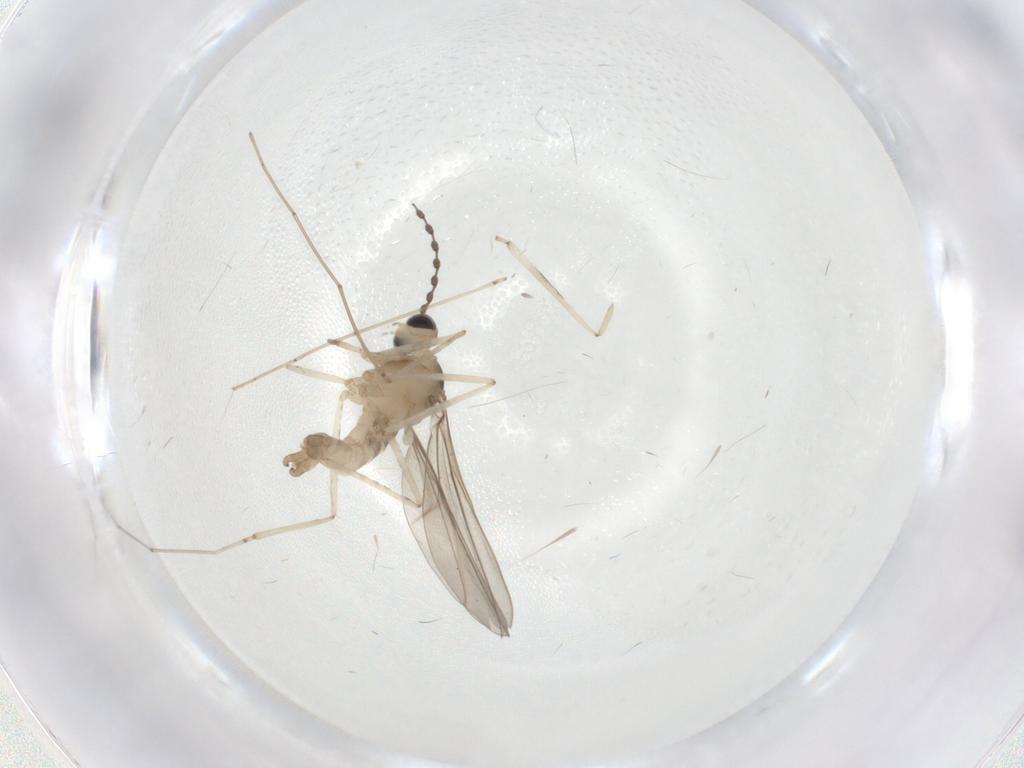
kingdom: Animalia
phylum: Arthropoda
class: Insecta
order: Diptera
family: Cecidomyiidae
